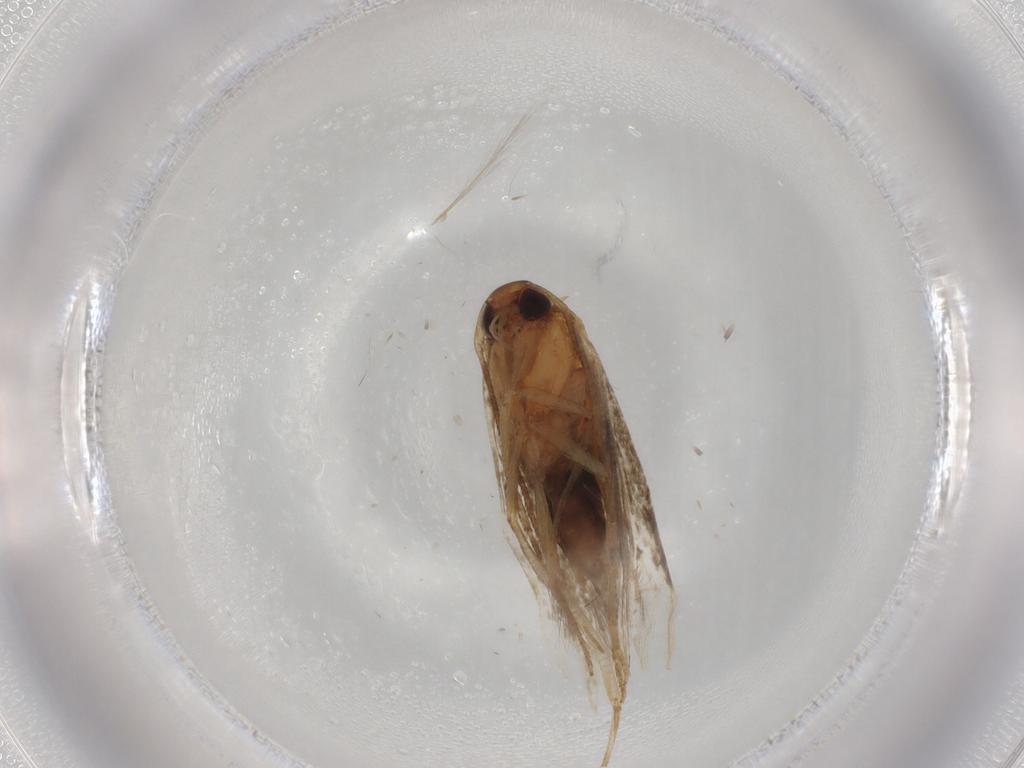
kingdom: Animalia
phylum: Arthropoda
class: Insecta
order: Lepidoptera
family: Cosmopterigidae
